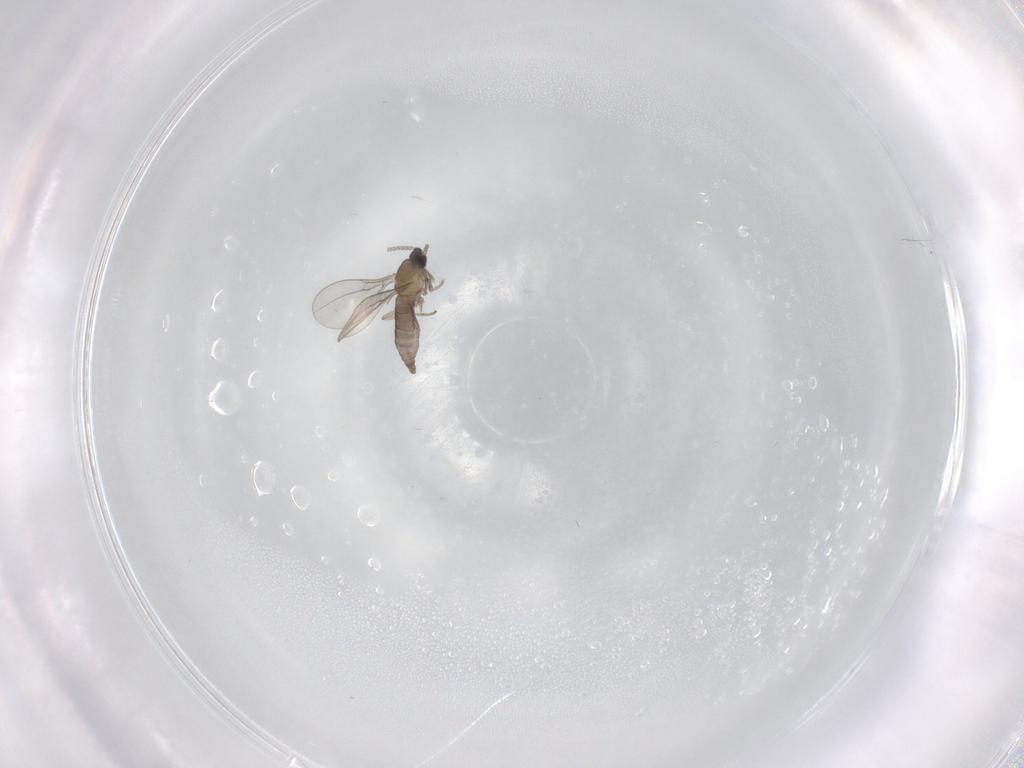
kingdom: Animalia
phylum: Arthropoda
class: Insecta
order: Diptera
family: Cecidomyiidae
